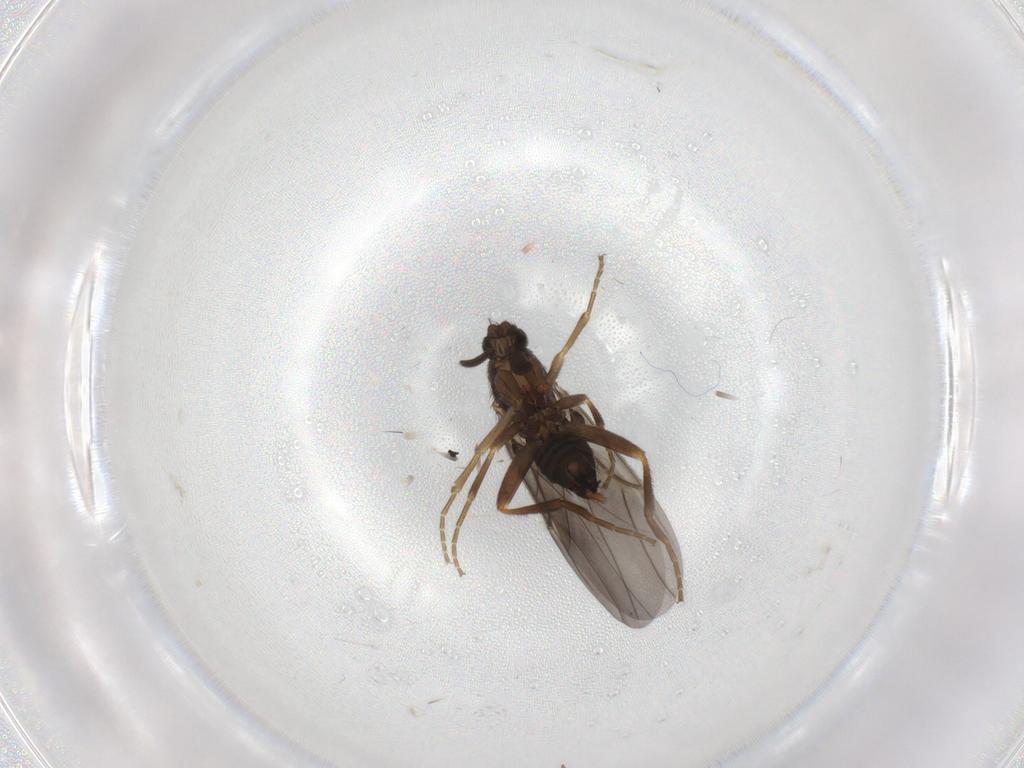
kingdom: Animalia
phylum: Arthropoda
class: Insecta
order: Diptera
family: Phoridae
